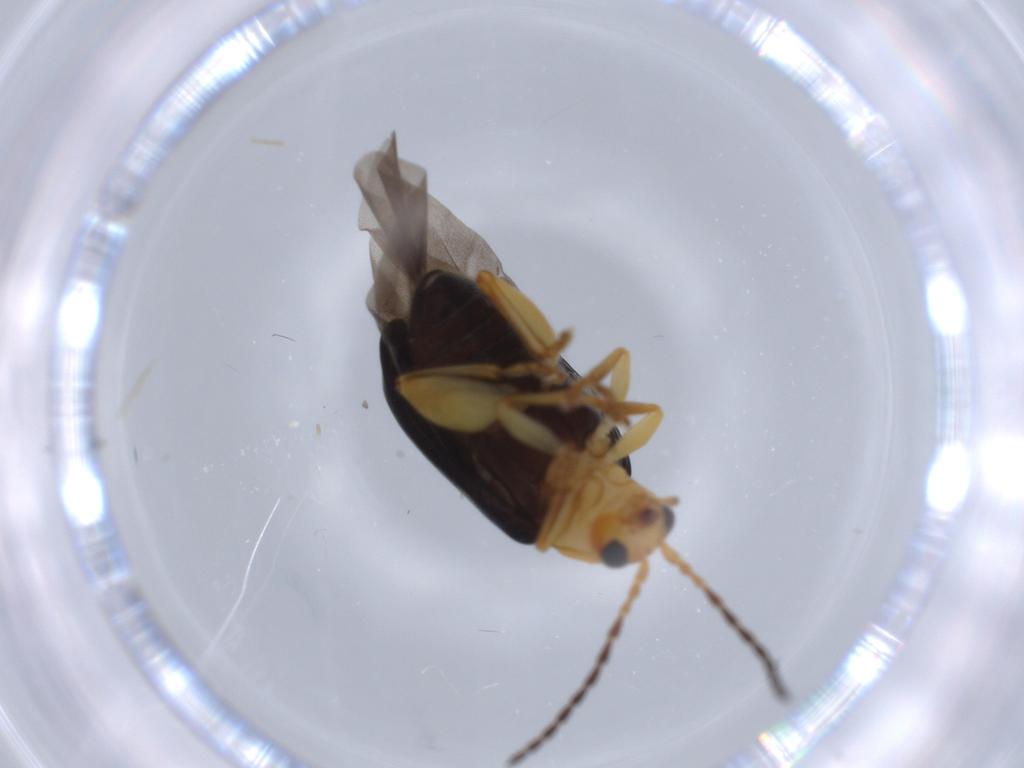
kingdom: Animalia
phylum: Arthropoda
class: Insecta
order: Coleoptera
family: Chrysomelidae
